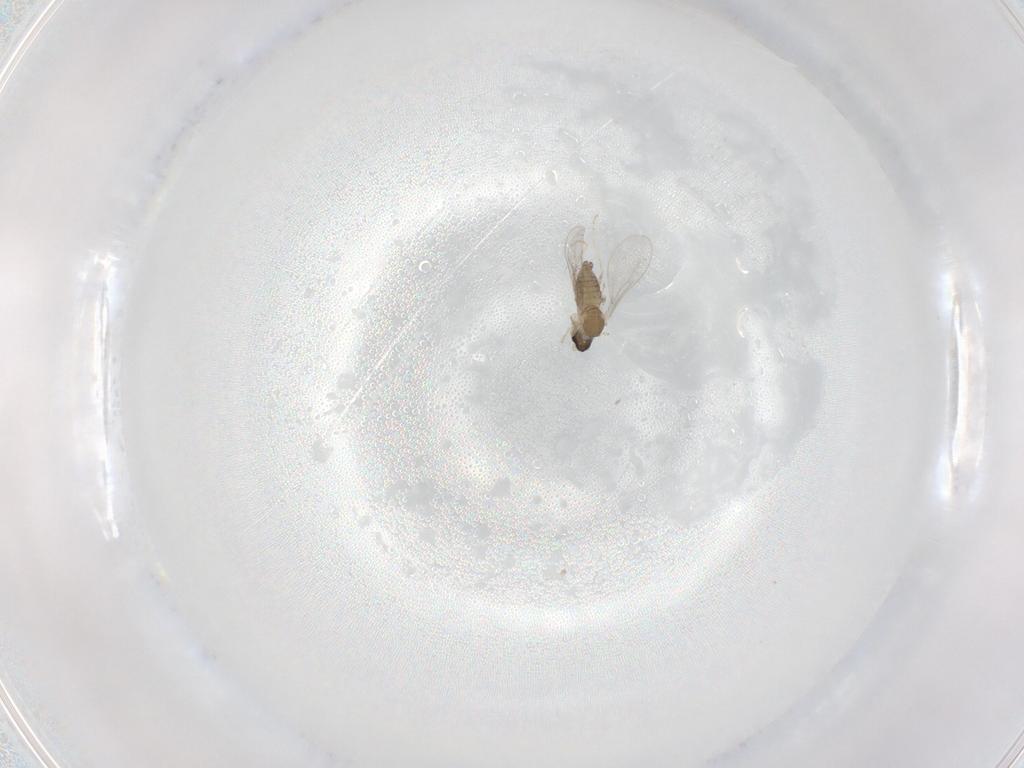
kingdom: Animalia
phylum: Arthropoda
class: Insecta
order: Diptera
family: Cecidomyiidae
